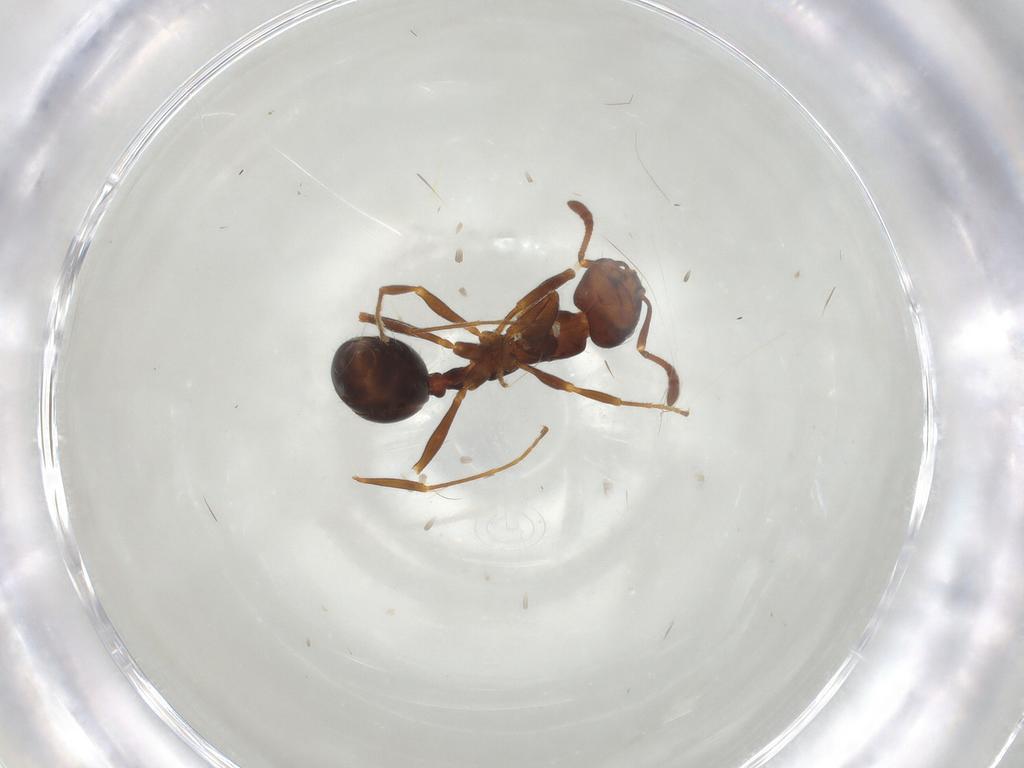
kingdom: Animalia
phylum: Arthropoda
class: Insecta
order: Hymenoptera
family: Formicidae
